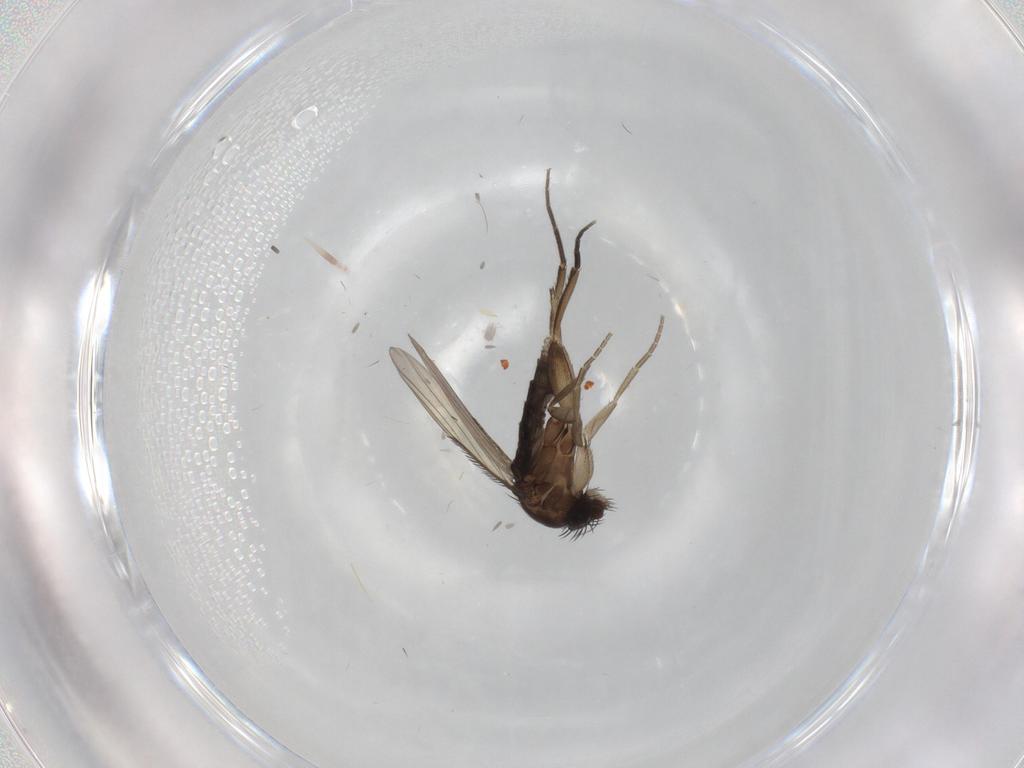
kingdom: Animalia
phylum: Arthropoda
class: Insecta
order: Diptera
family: Phoridae
